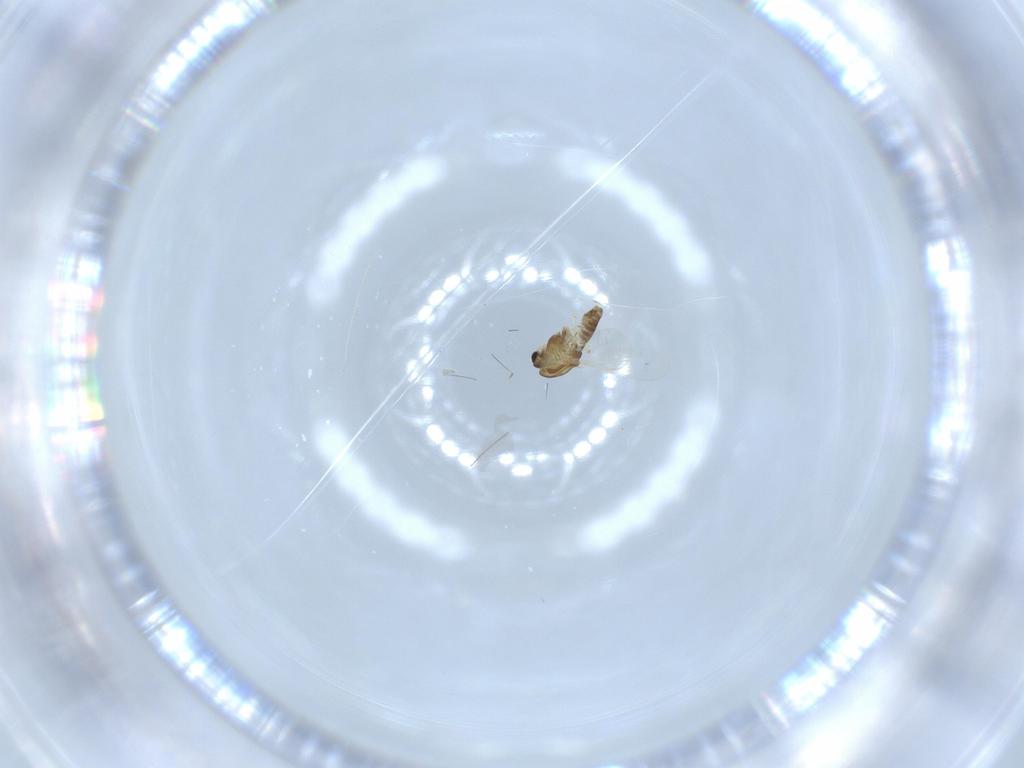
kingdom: Animalia
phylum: Arthropoda
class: Insecta
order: Diptera
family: Chironomidae
